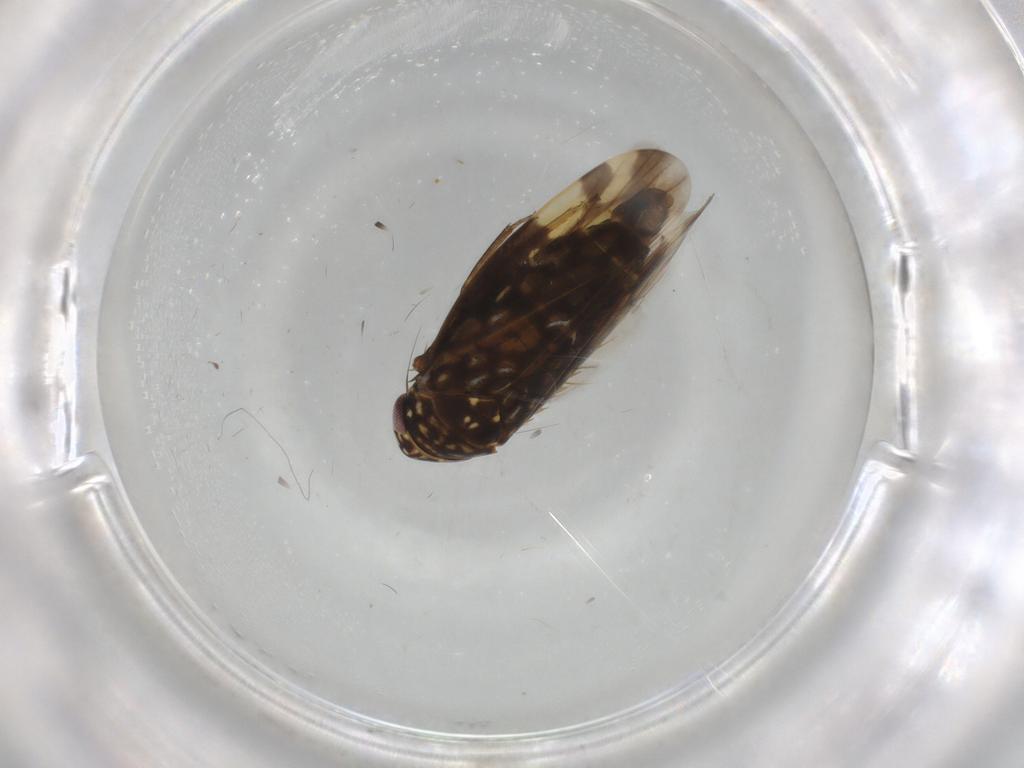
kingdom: Animalia
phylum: Arthropoda
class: Insecta
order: Hemiptera
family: Cicadellidae
